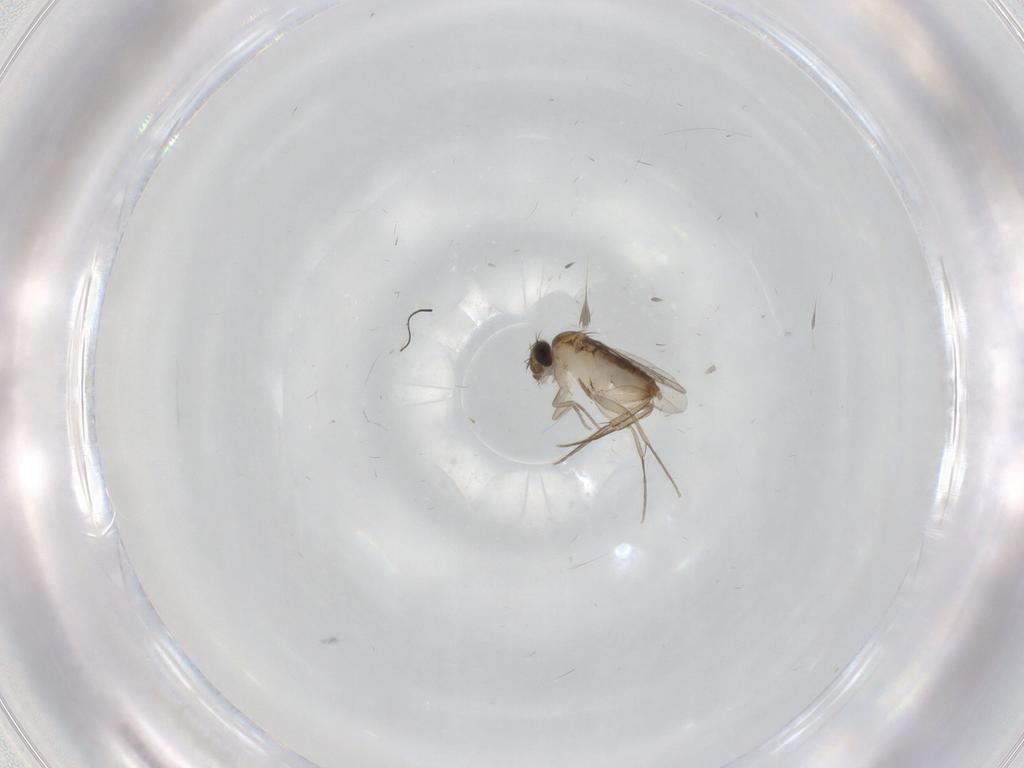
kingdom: Animalia
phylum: Arthropoda
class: Insecta
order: Diptera
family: Phoridae
